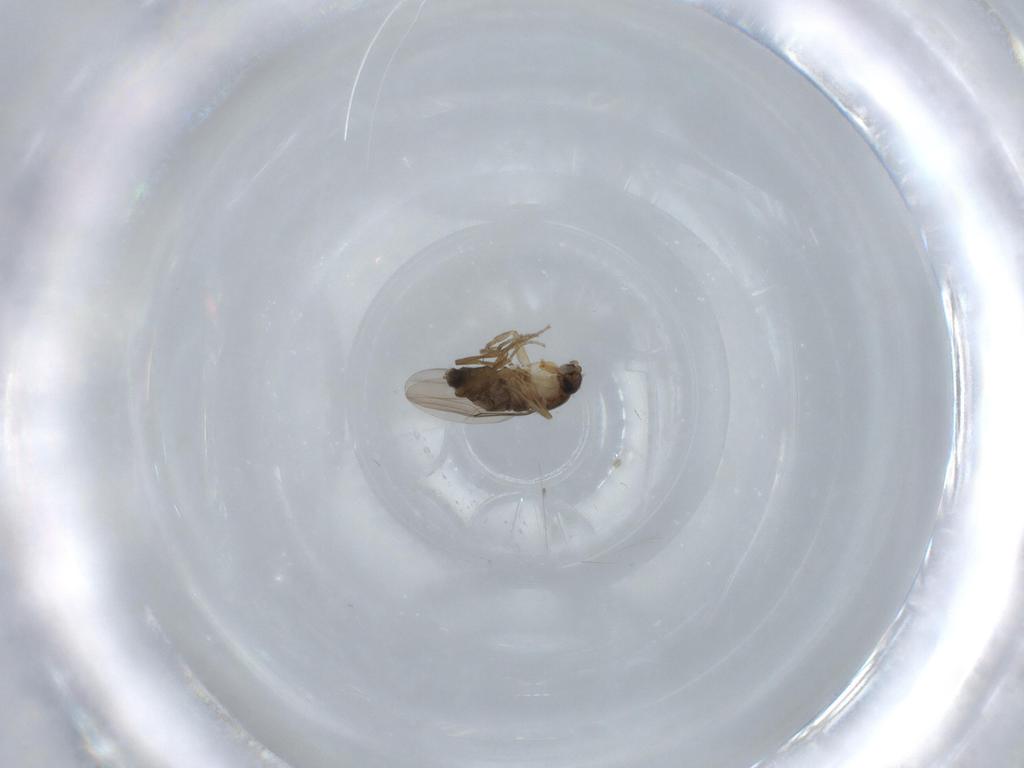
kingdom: Animalia
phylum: Arthropoda
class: Insecta
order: Diptera
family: Phoridae
